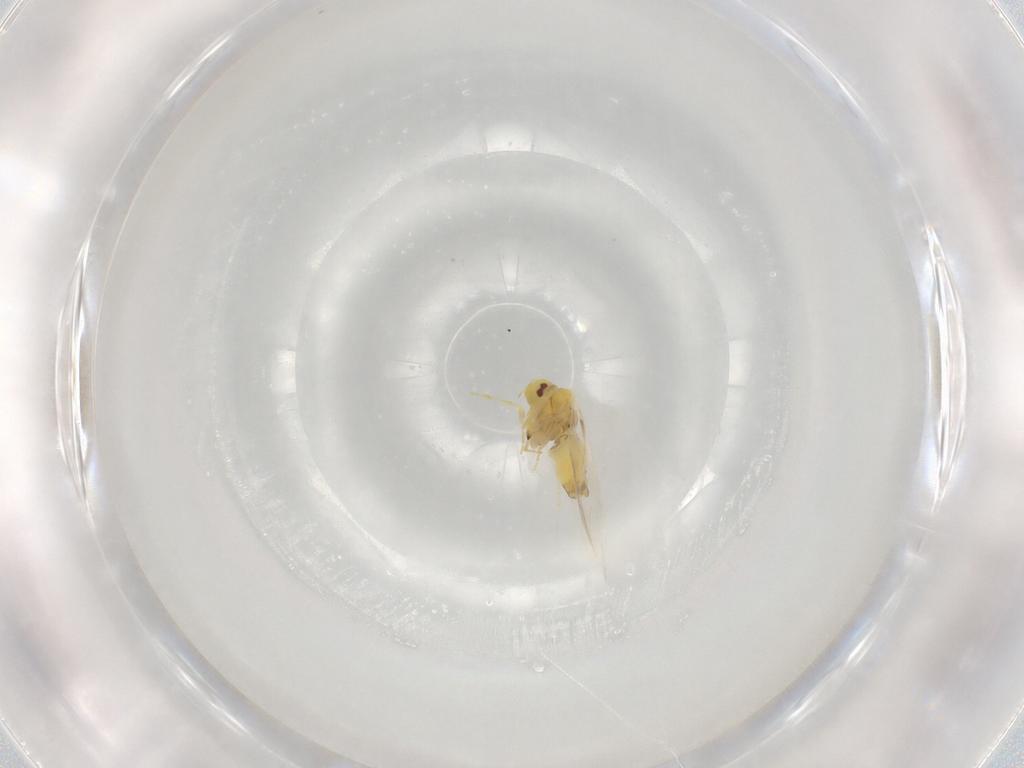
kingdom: Animalia
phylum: Arthropoda
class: Insecta
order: Hemiptera
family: Aleyrodidae
